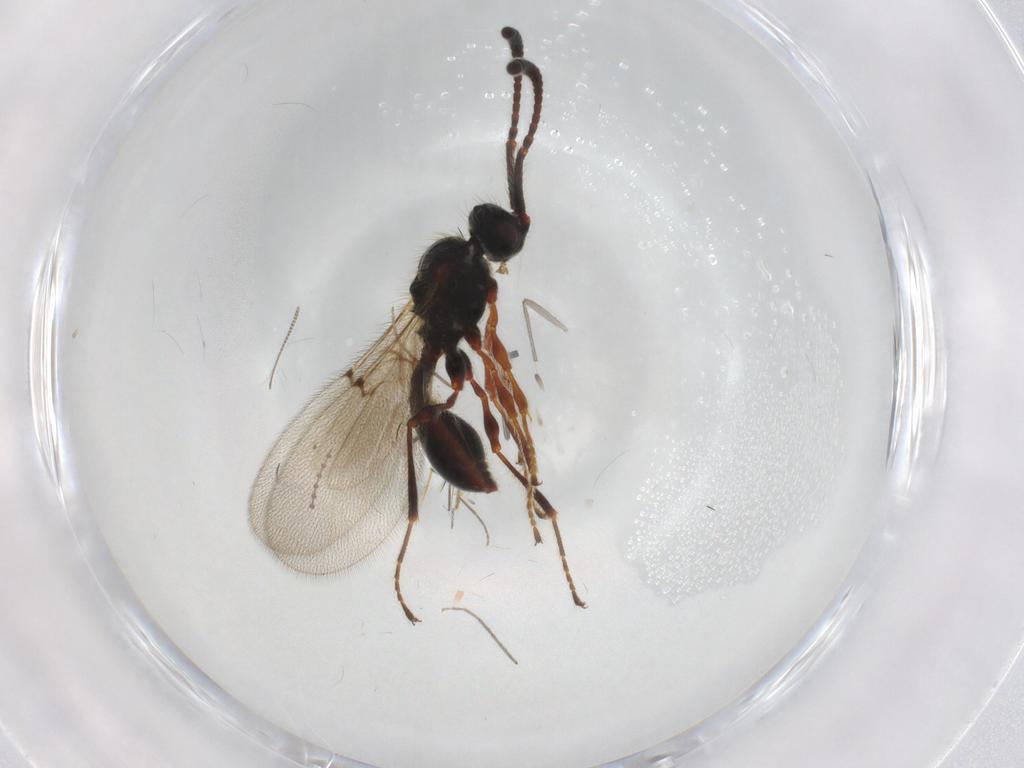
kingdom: Animalia
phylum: Arthropoda
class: Insecta
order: Hymenoptera
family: Diapriidae
